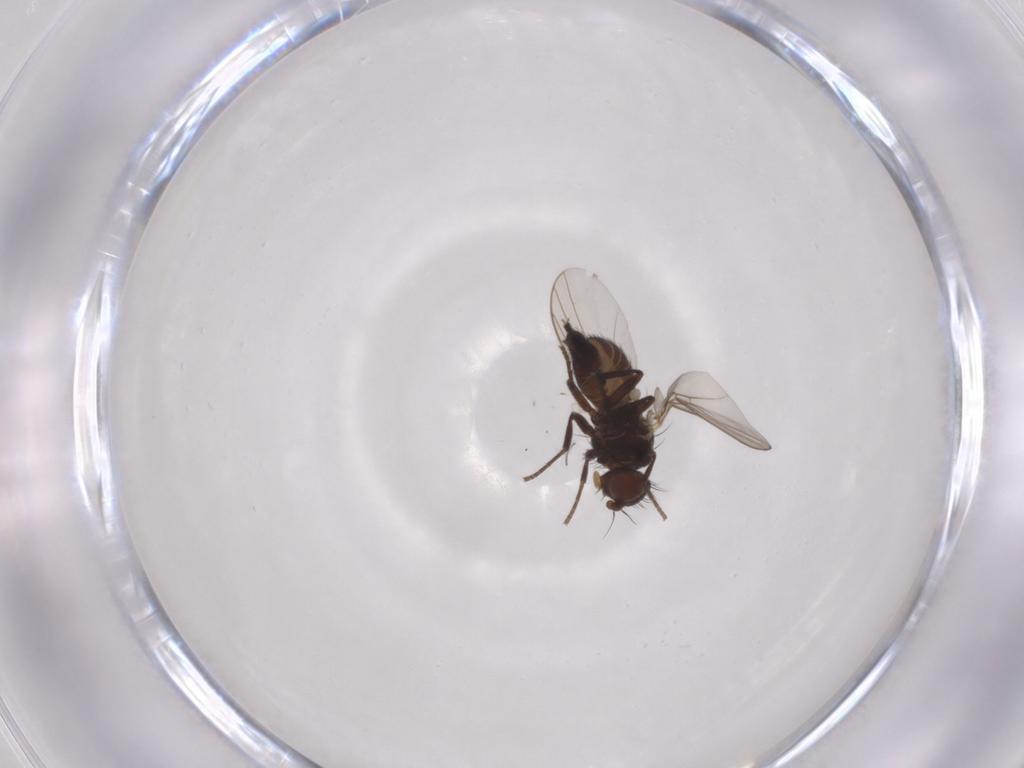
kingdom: Animalia
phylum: Arthropoda
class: Insecta
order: Diptera
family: Agromyzidae
